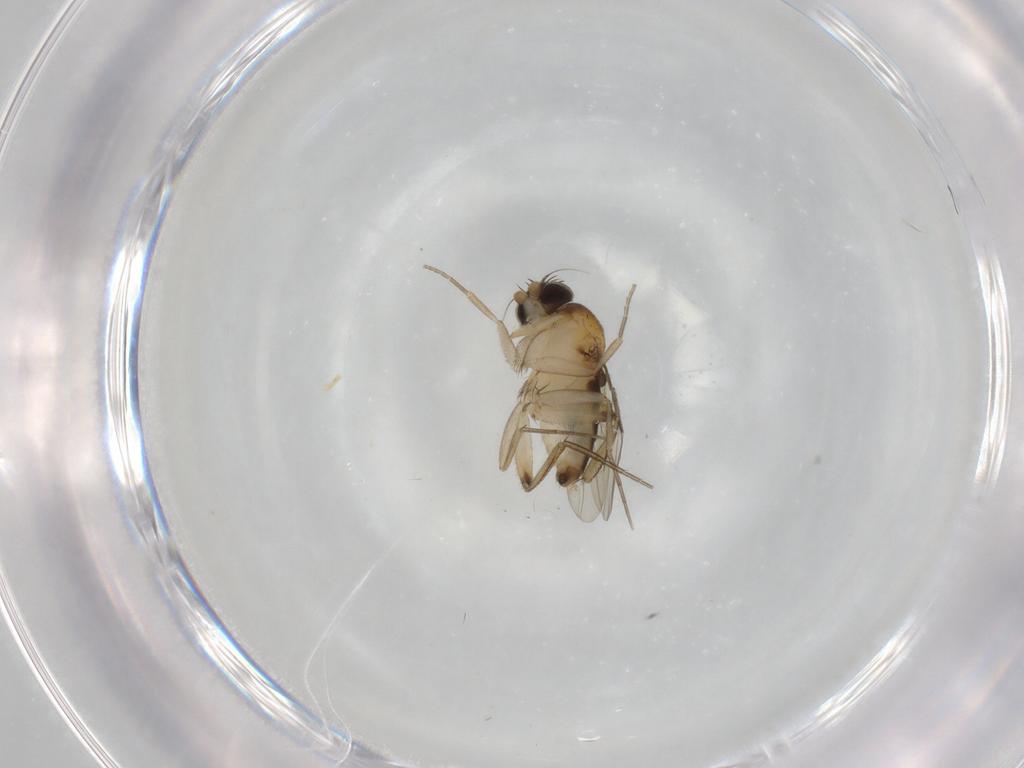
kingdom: Animalia
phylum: Arthropoda
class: Insecta
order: Diptera
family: Phoridae
